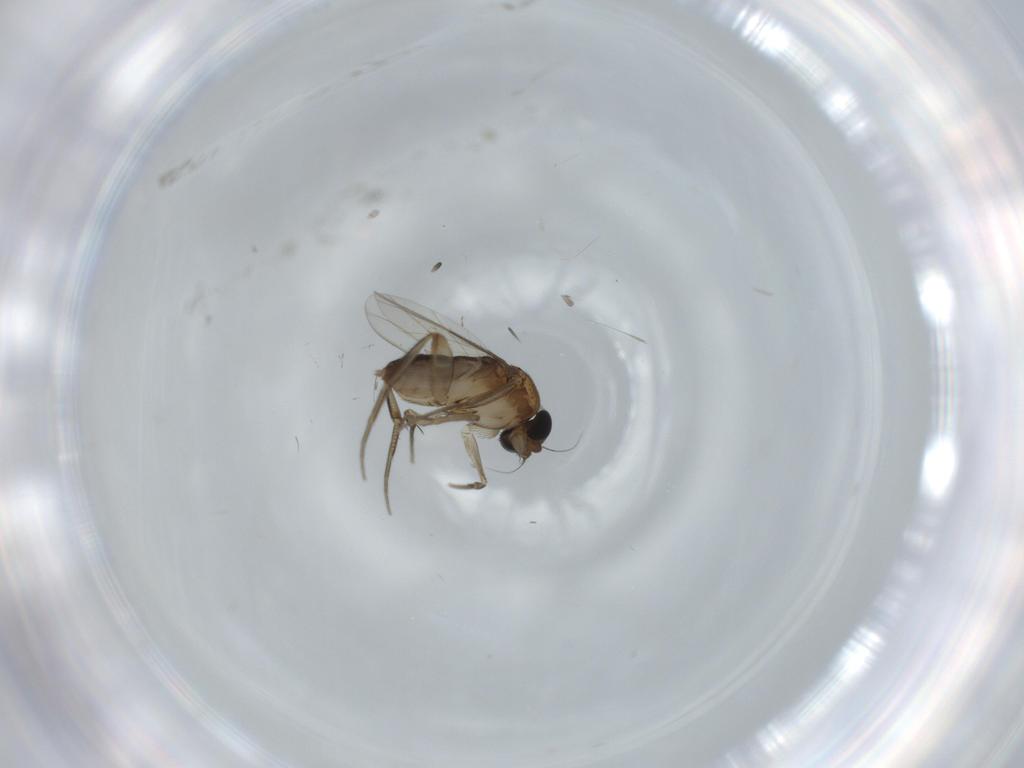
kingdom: Animalia
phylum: Arthropoda
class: Insecta
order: Diptera
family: Phoridae
